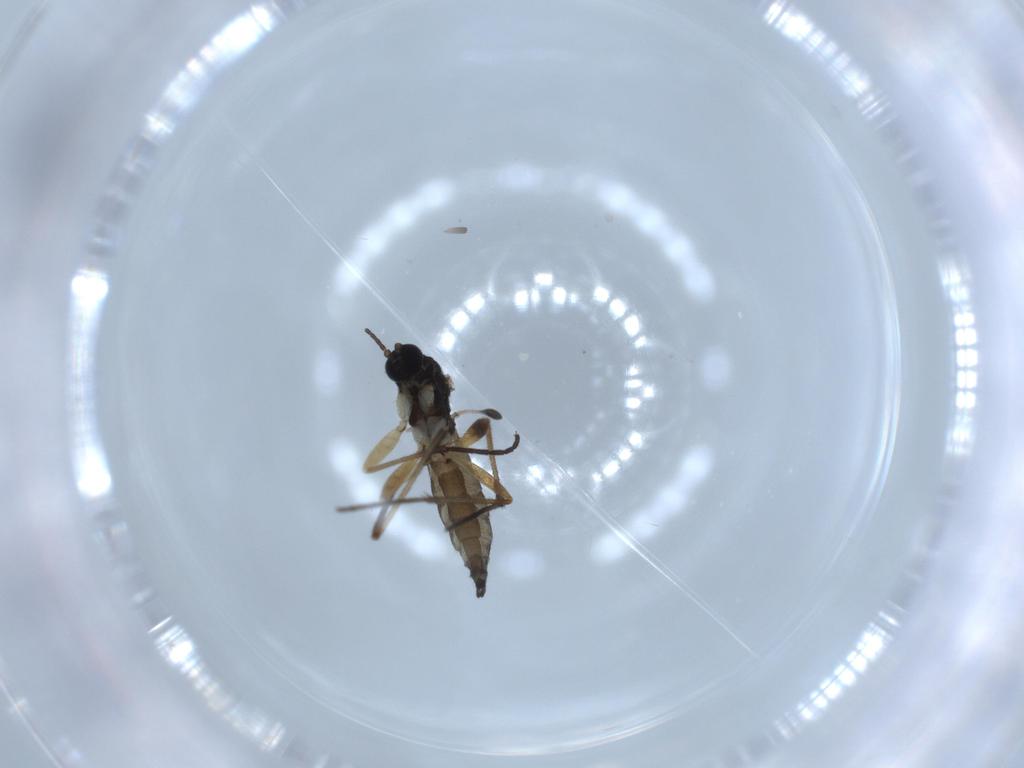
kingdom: Animalia
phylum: Arthropoda
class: Insecta
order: Diptera
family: Sciaridae
